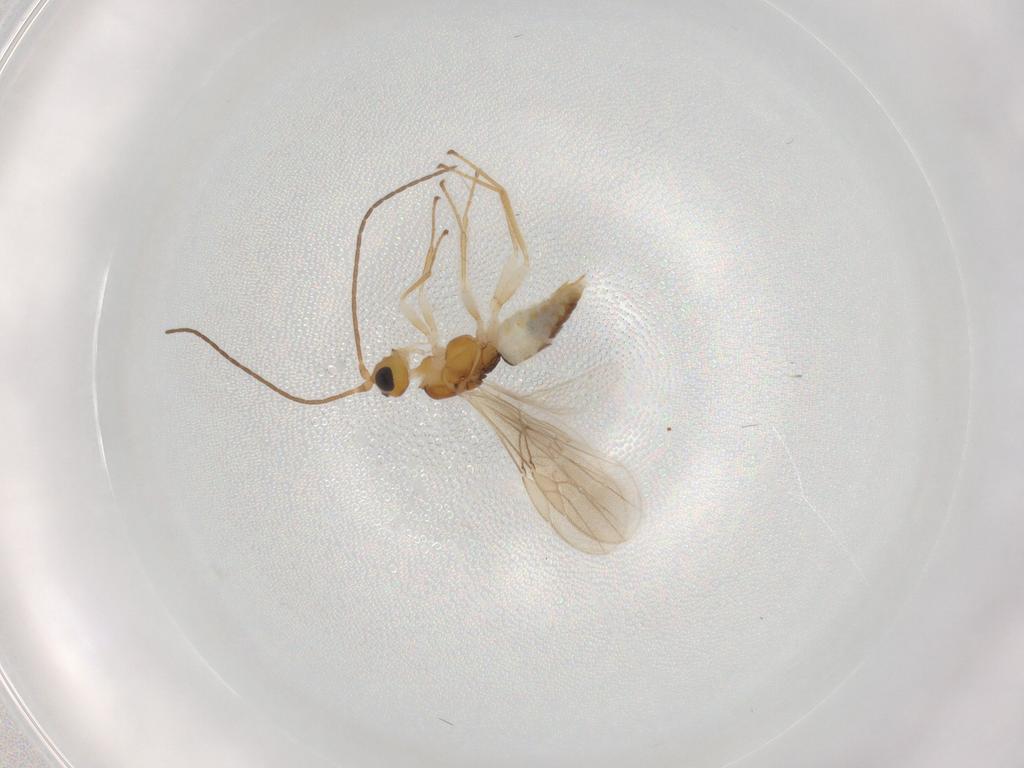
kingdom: Animalia
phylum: Arthropoda
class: Insecta
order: Hymenoptera
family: Braconidae
